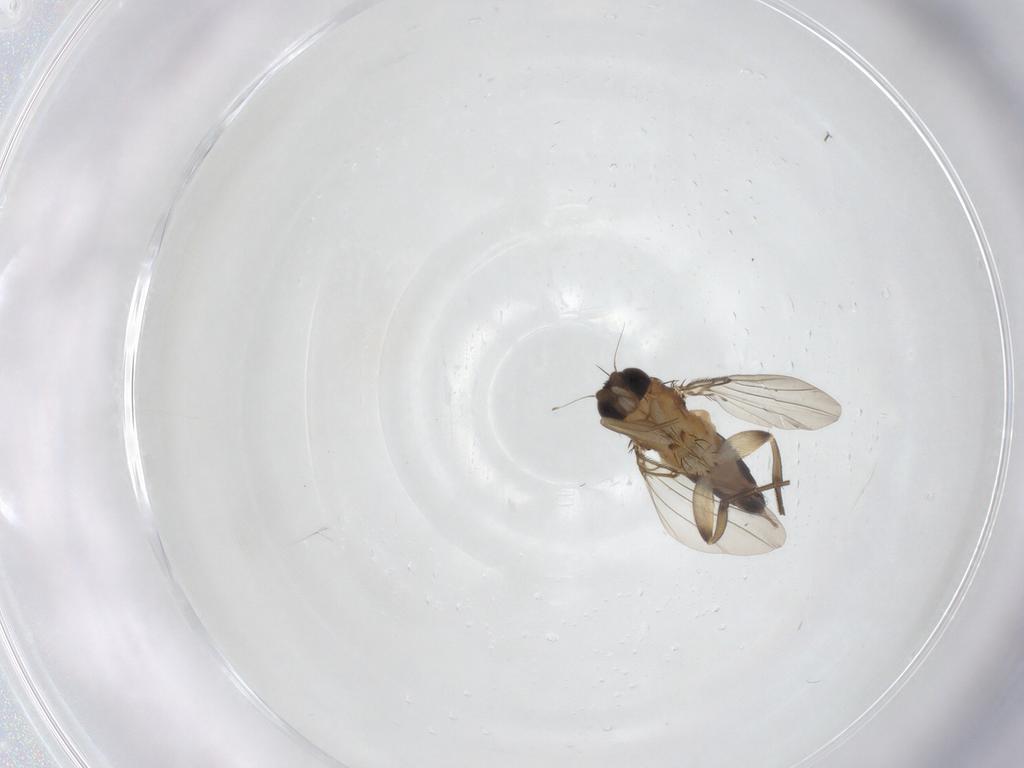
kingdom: Animalia
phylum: Arthropoda
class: Insecta
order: Diptera
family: Phoridae
